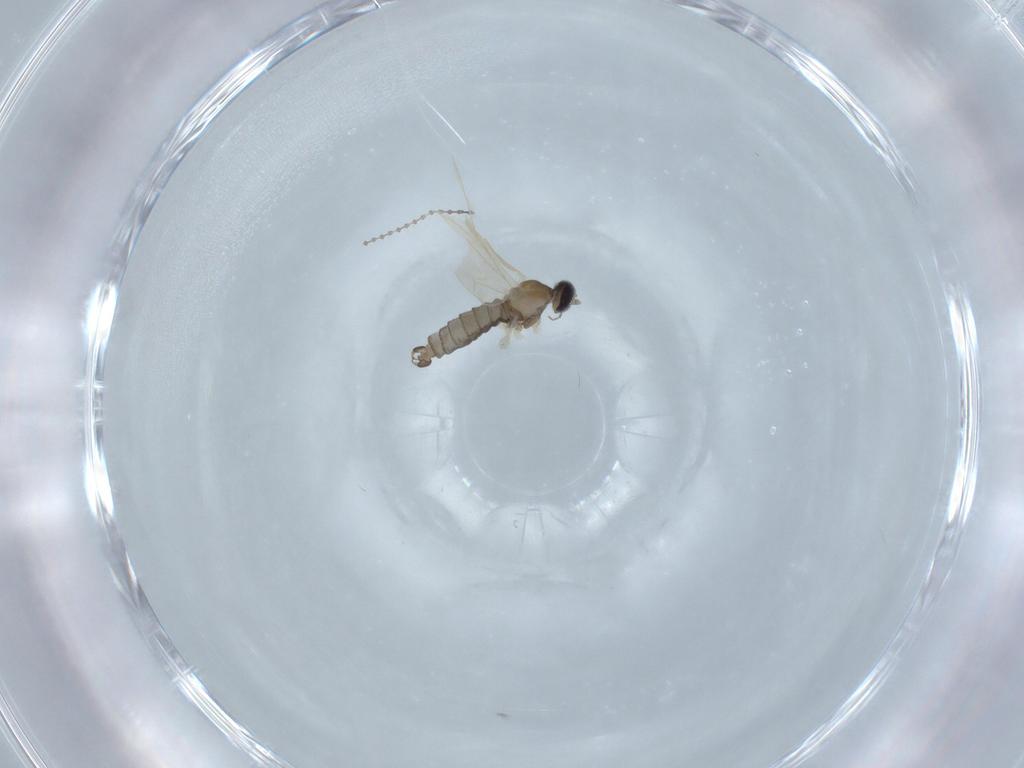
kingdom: Animalia
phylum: Arthropoda
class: Insecta
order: Diptera
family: Cecidomyiidae
